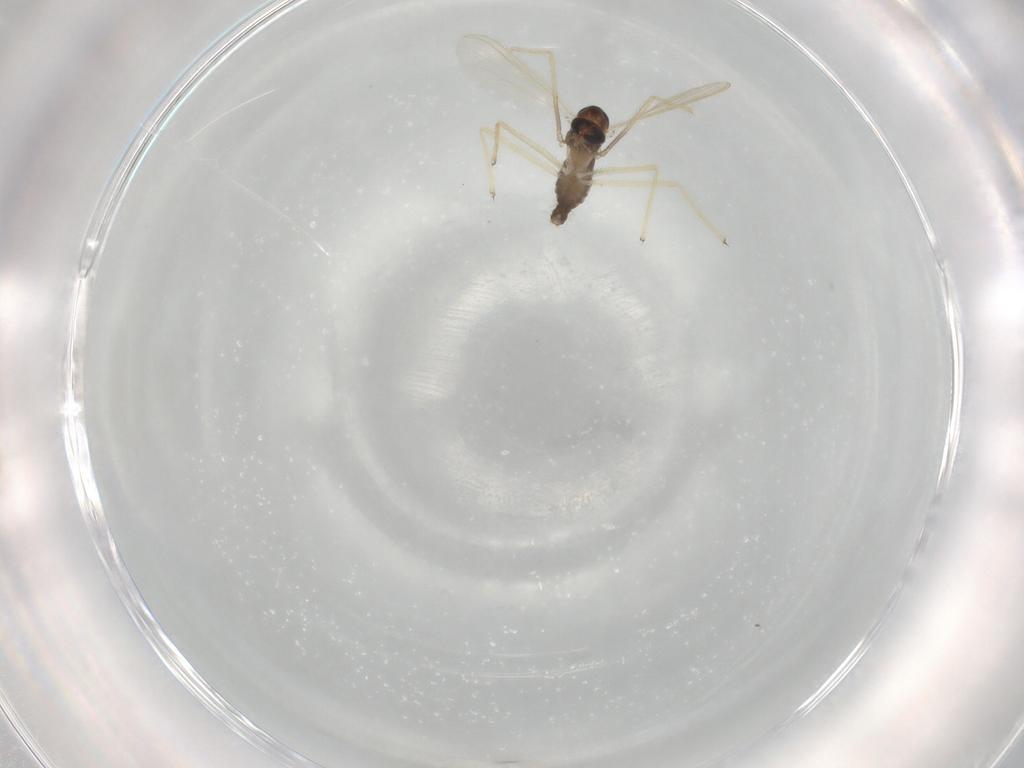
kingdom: Animalia
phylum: Arthropoda
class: Insecta
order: Diptera
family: Chironomidae
